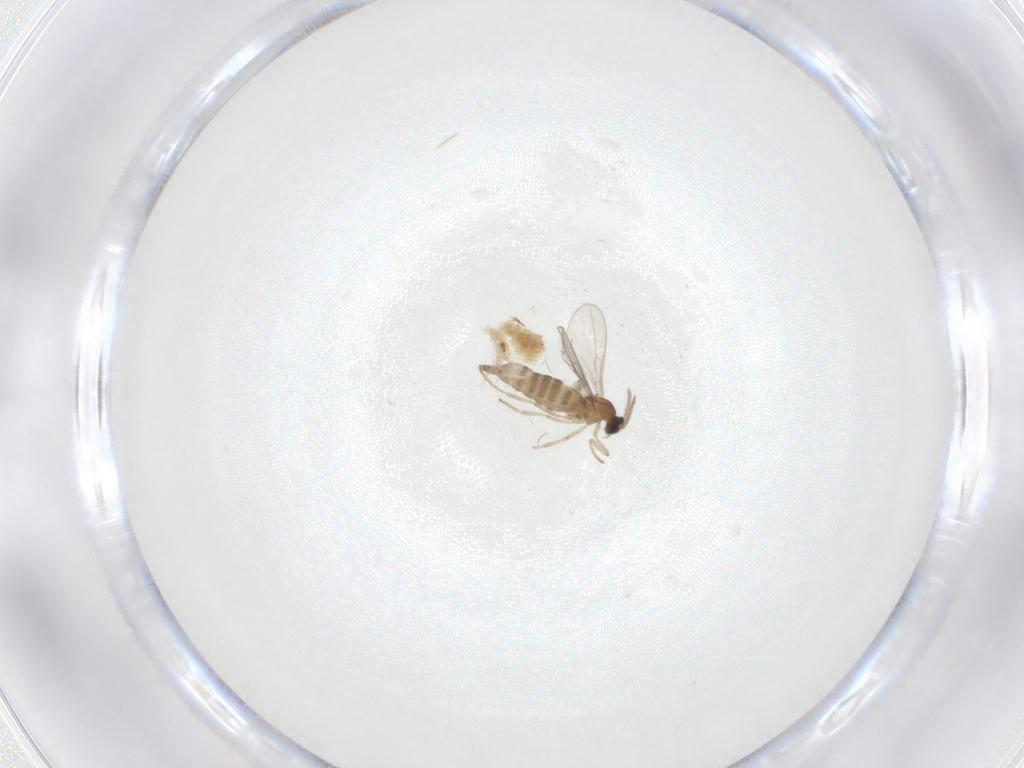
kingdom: Animalia
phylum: Arthropoda
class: Insecta
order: Diptera
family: Cecidomyiidae
